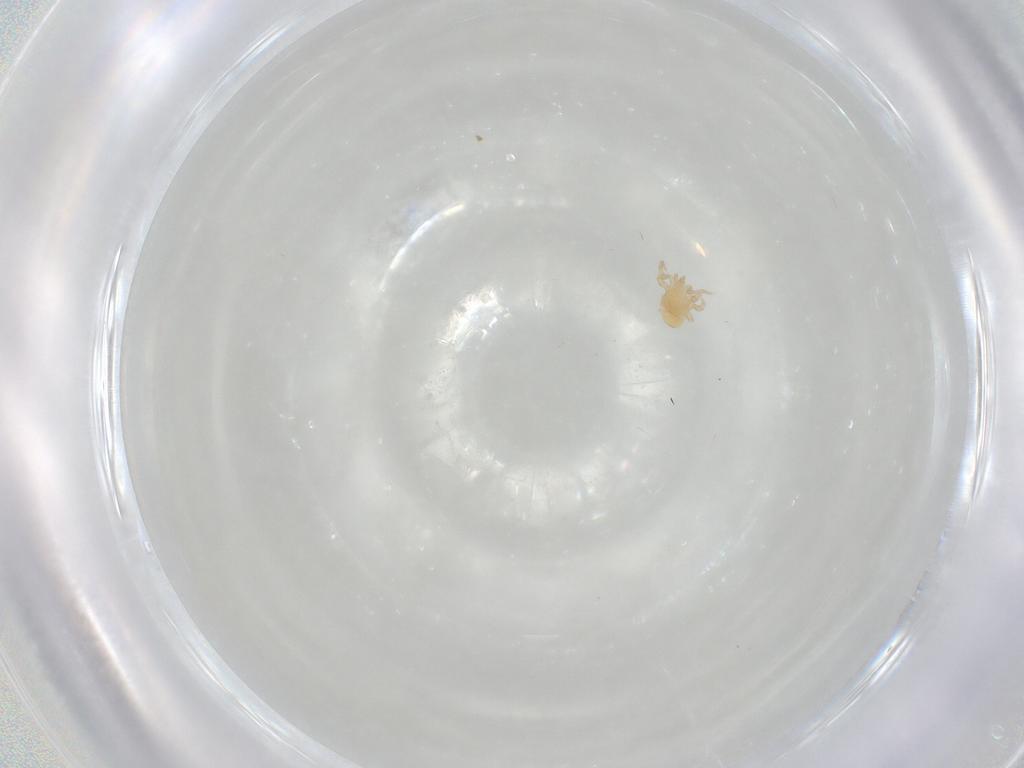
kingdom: Animalia
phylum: Arthropoda
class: Arachnida
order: Mesostigmata
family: Parasitidae
